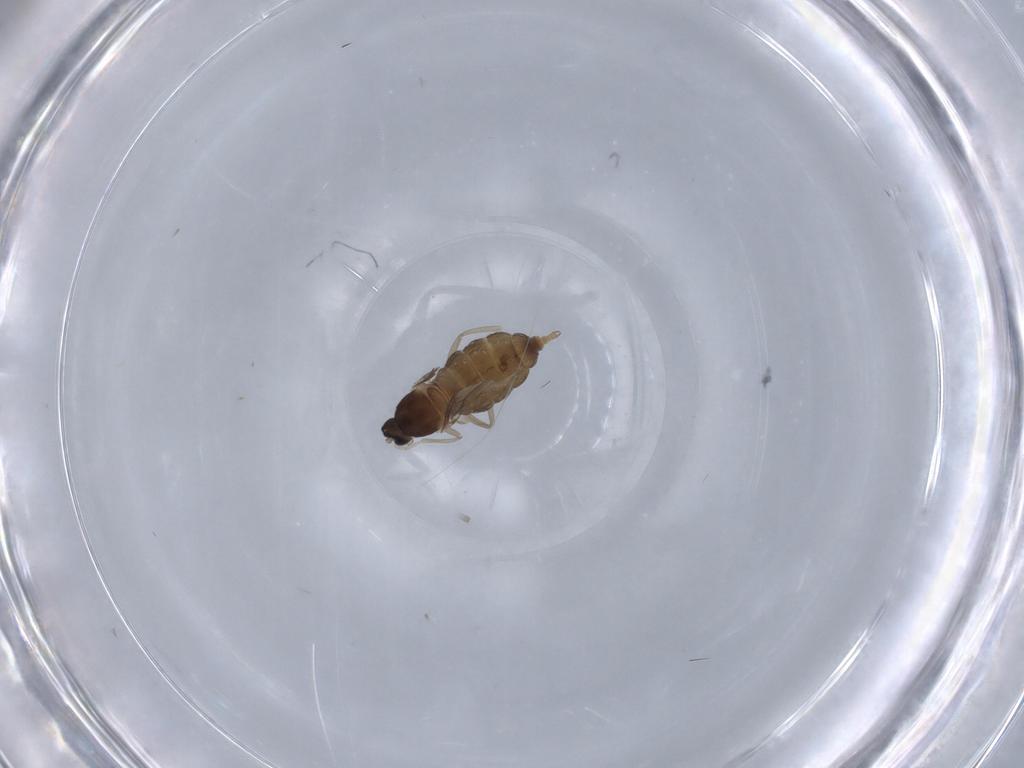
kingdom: Animalia
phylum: Arthropoda
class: Insecta
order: Diptera
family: Cecidomyiidae
